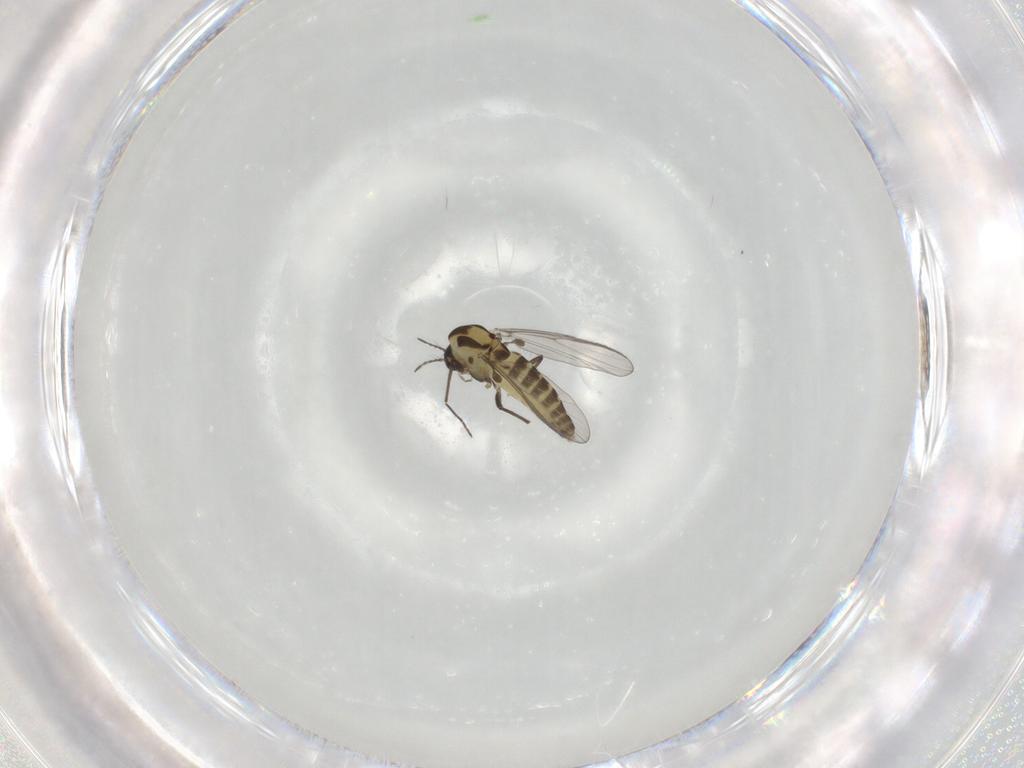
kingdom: Animalia
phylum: Arthropoda
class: Insecta
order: Diptera
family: Chironomidae
